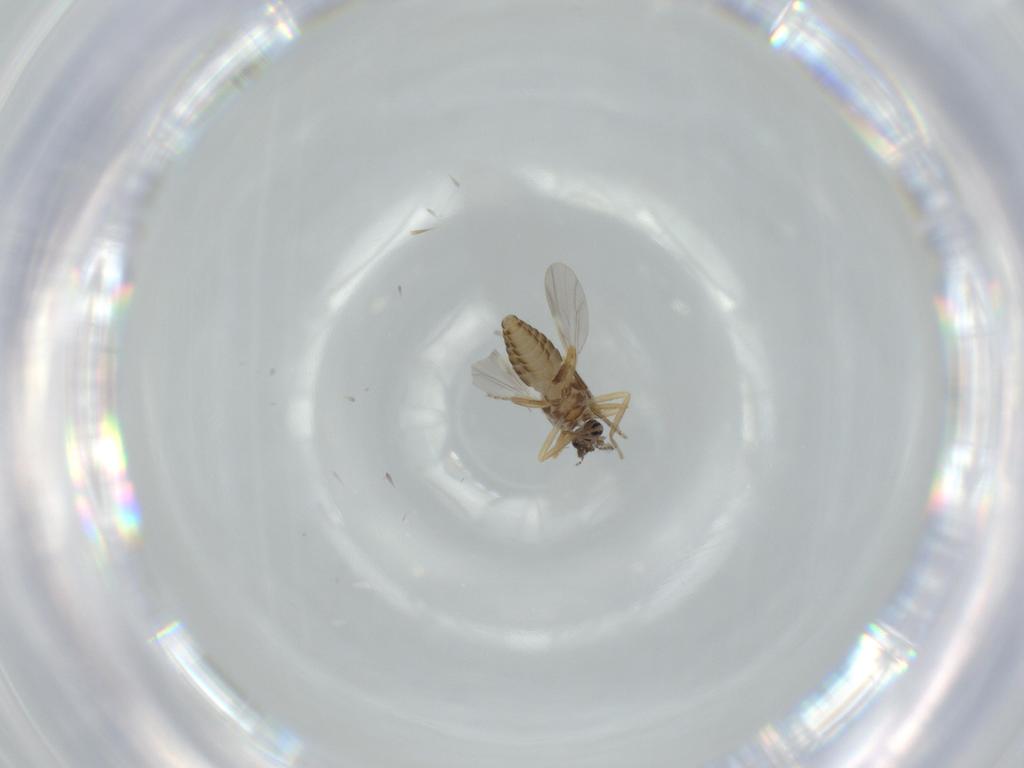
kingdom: Animalia
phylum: Arthropoda
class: Insecta
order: Diptera
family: Ceratopogonidae
